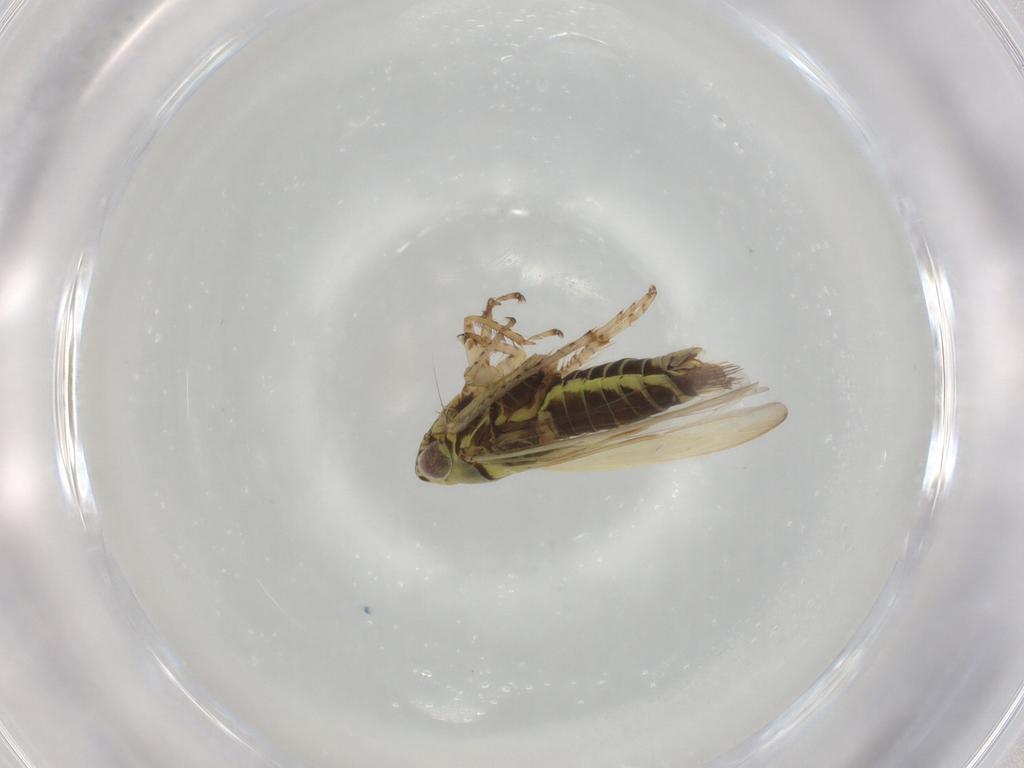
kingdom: Animalia
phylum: Arthropoda
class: Insecta
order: Hemiptera
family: Cicadellidae
